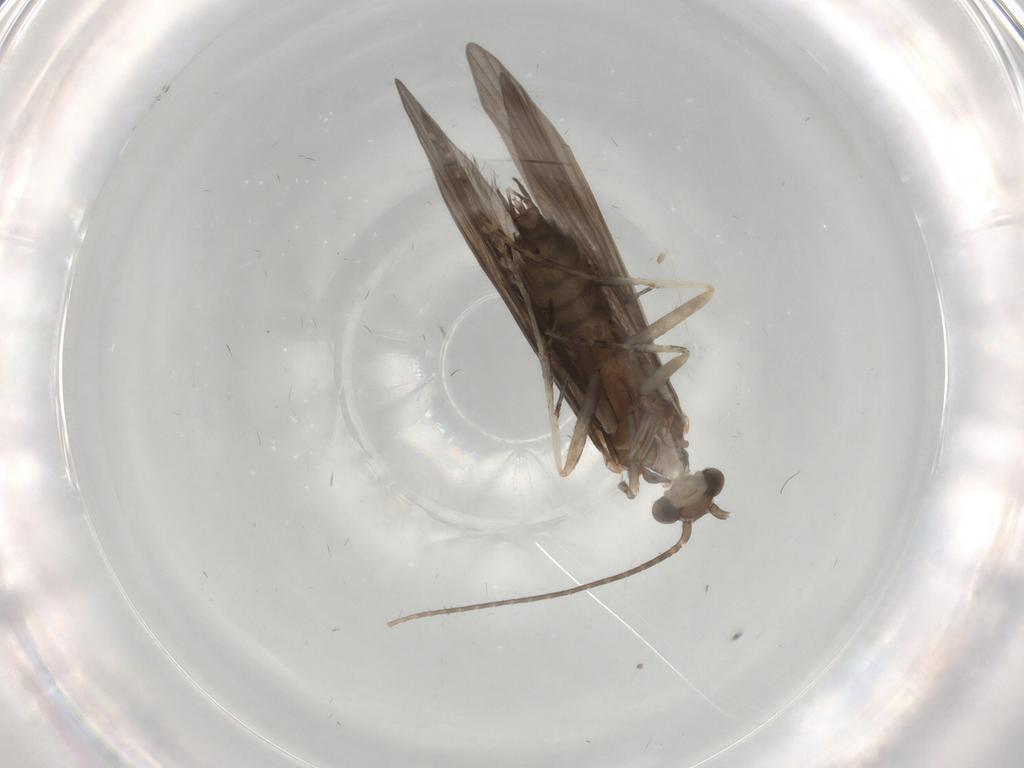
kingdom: Animalia
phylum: Arthropoda
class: Insecta
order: Trichoptera
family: Xiphocentronidae
